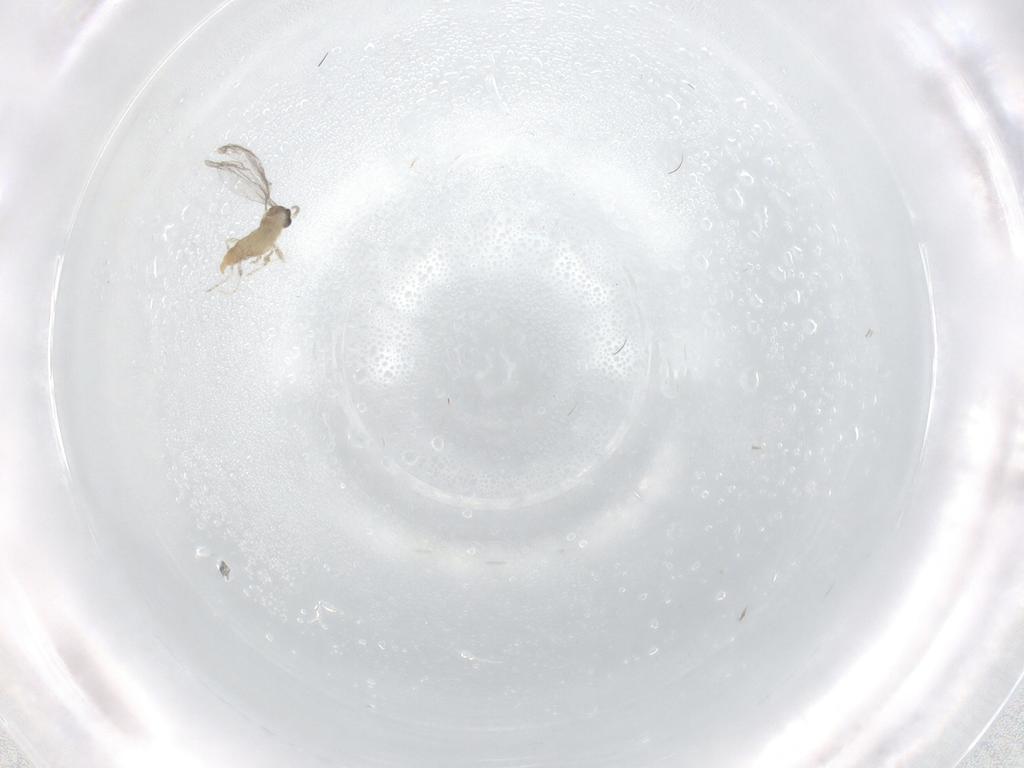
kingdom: Animalia
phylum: Arthropoda
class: Insecta
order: Diptera
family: Cecidomyiidae
